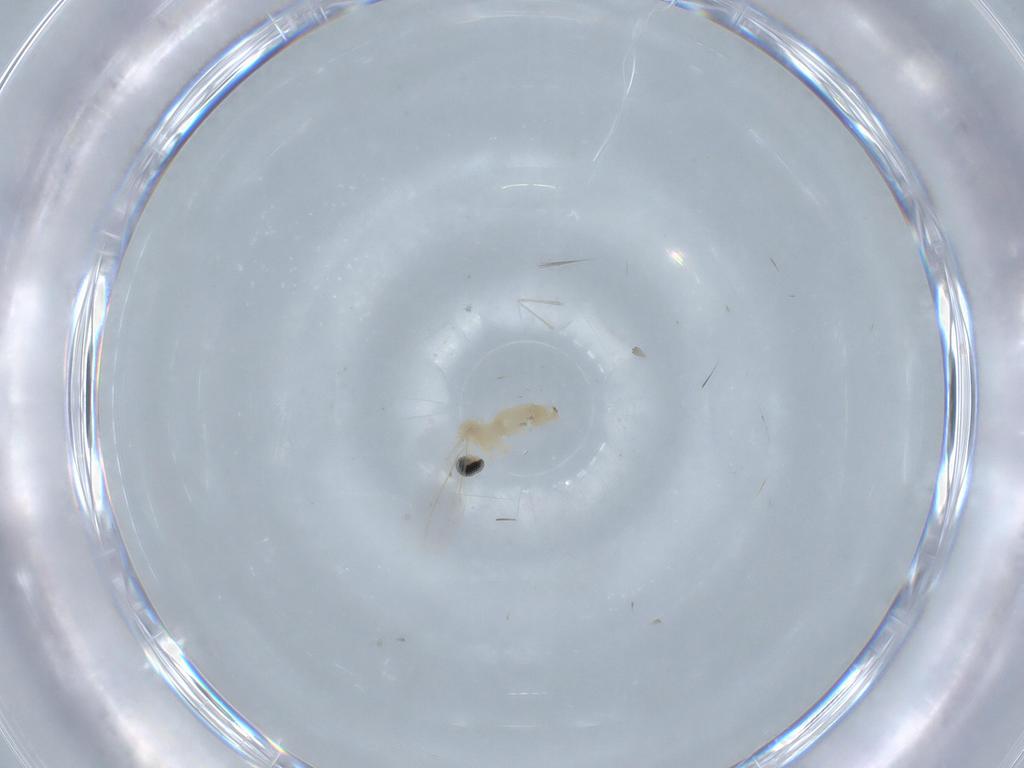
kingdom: Animalia
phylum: Arthropoda
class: Insecta
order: Diptera
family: Cecidomyiidae
